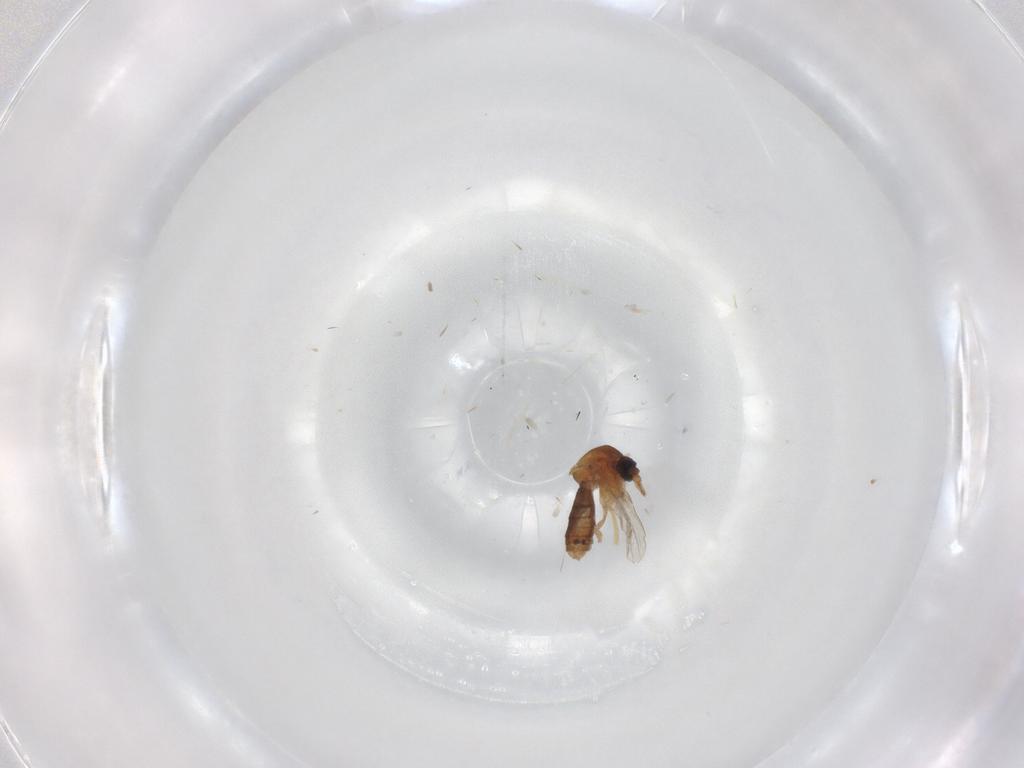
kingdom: Animalia
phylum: Arthropoda
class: Insecta
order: Diptera
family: Ceratopogonidae
